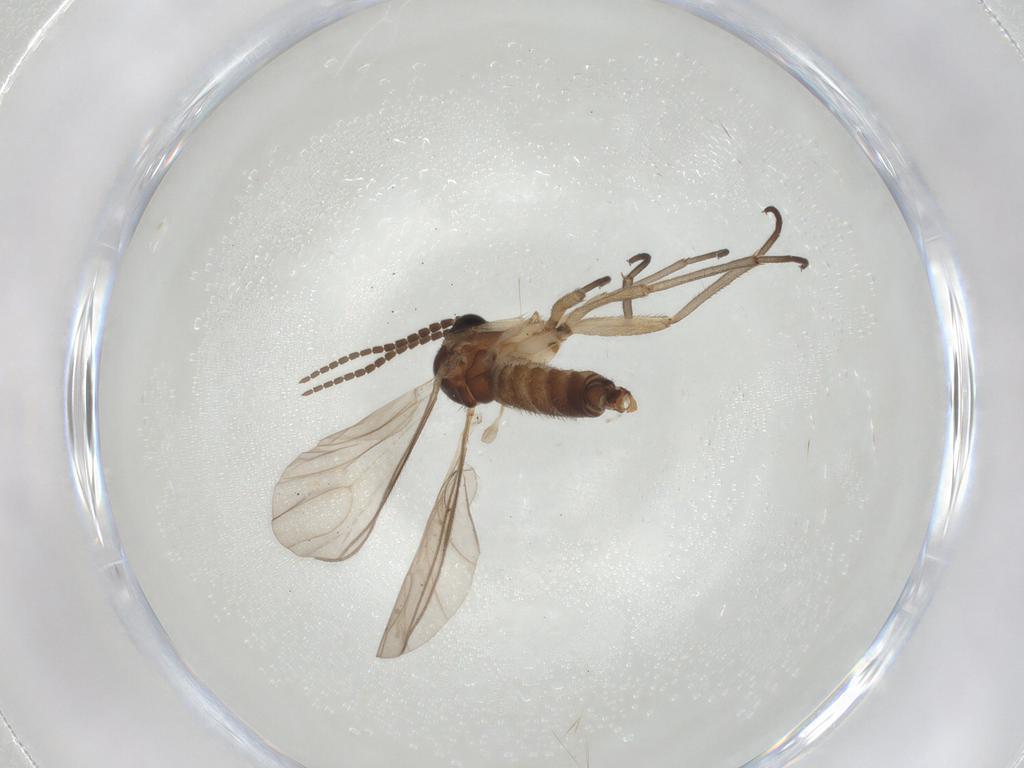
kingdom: Animalia
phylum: Arthropoda
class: Insecta
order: Diptera
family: Sciaridae
